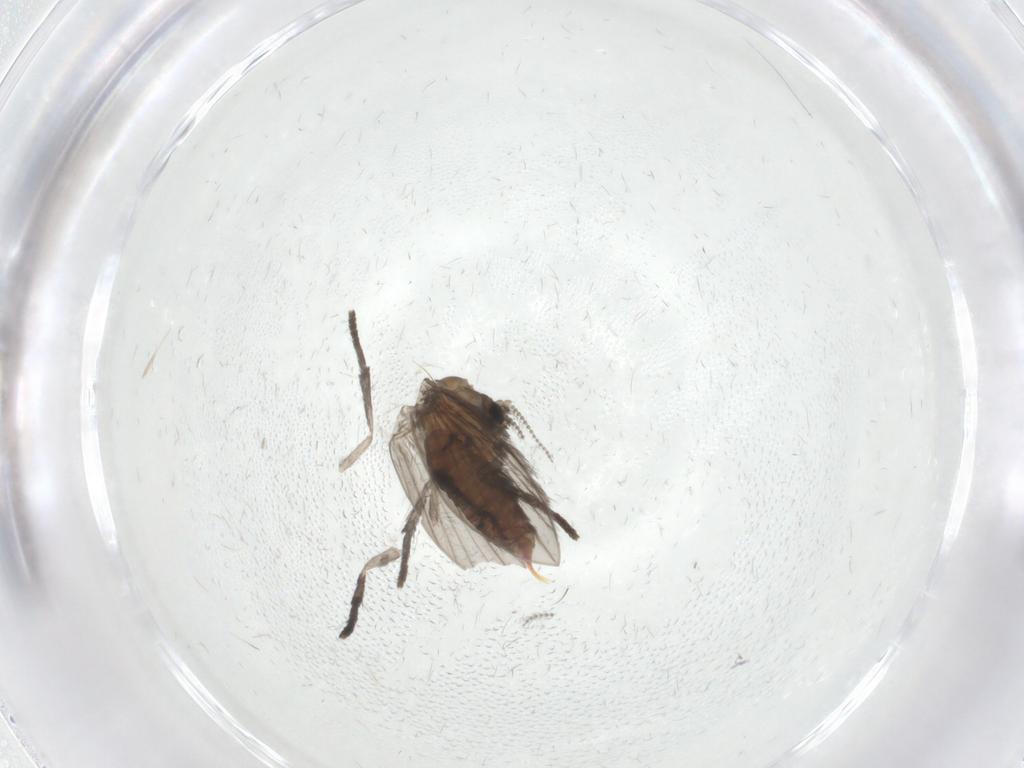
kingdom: Animalia
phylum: Arthropoda
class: Insecta
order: Diptera
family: Psychodidae
